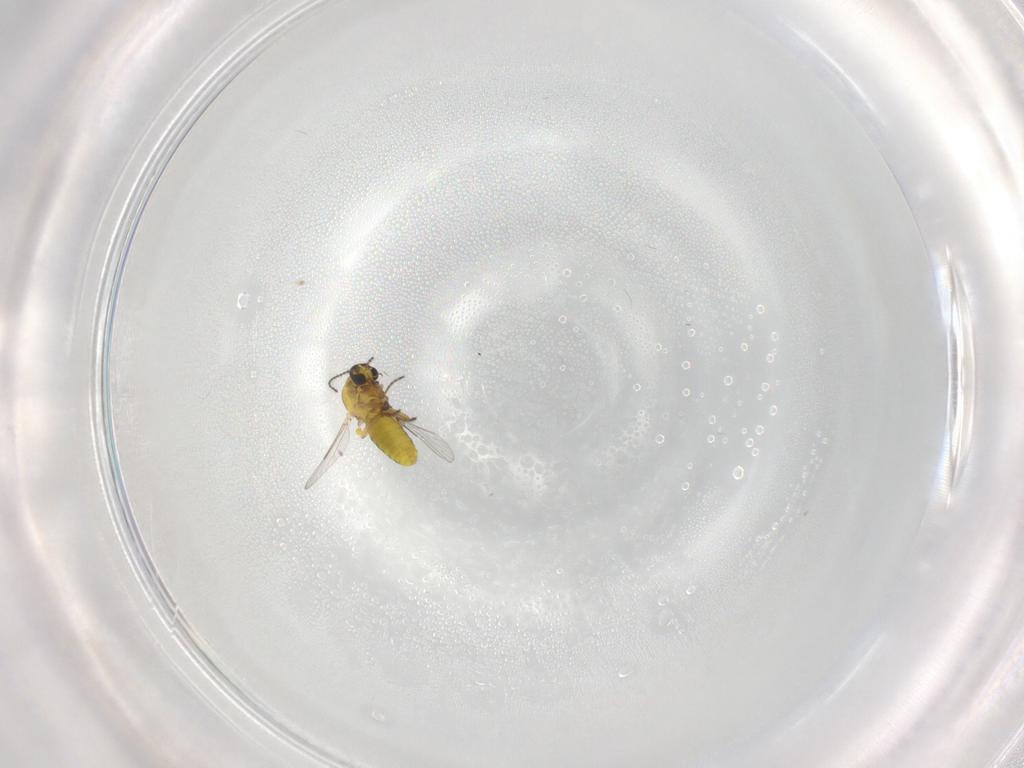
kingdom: Animalia
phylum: Arthropoda
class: Insecta
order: Diptera
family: Ceratopogonidae
